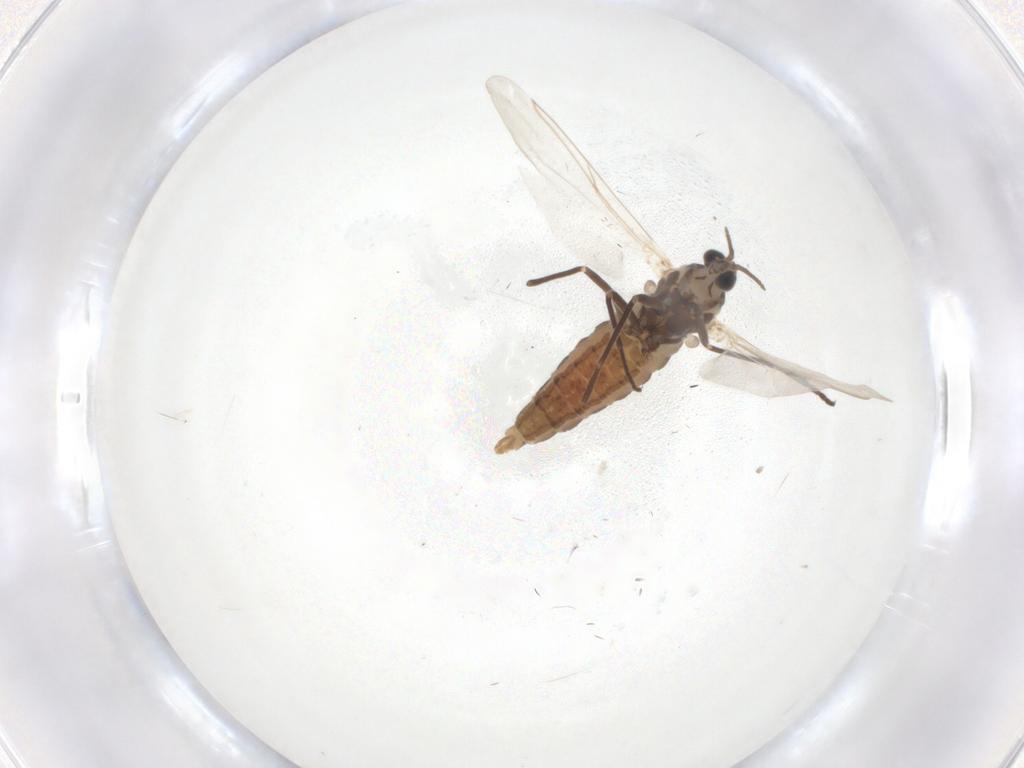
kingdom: Animalia
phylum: Arthropoda
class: Insecta
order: Diptera
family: Cecidomyiidae
